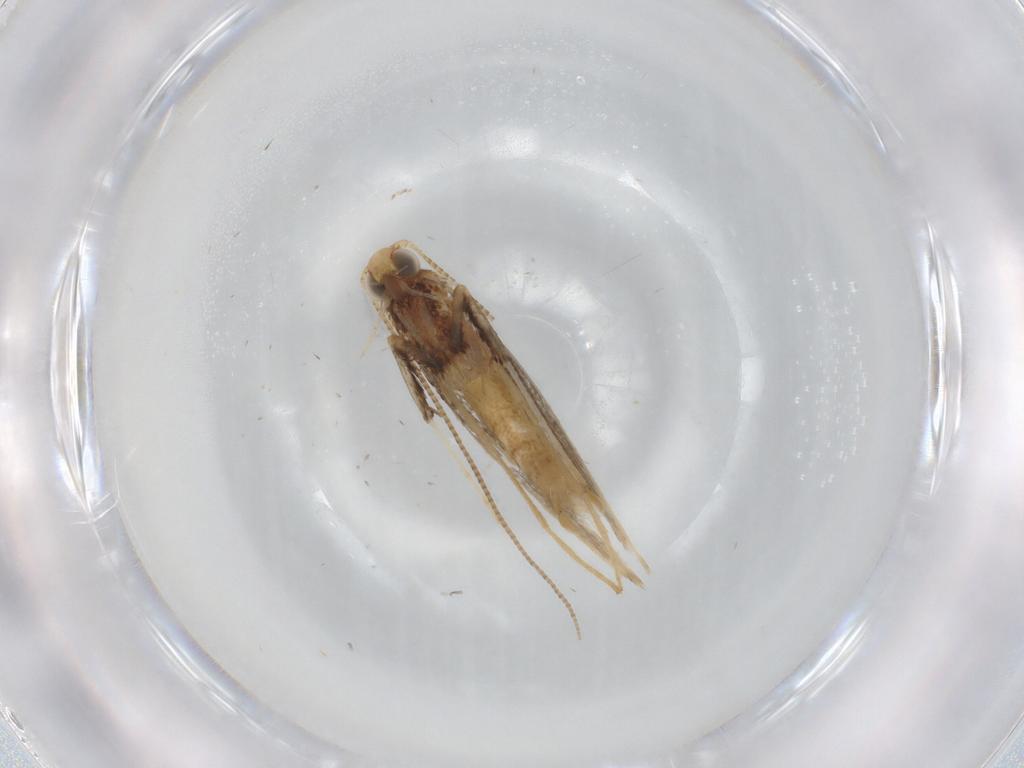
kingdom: Animalia
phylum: Arthropoda
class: Insecta
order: Lepidoptera
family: Gracillariidae
